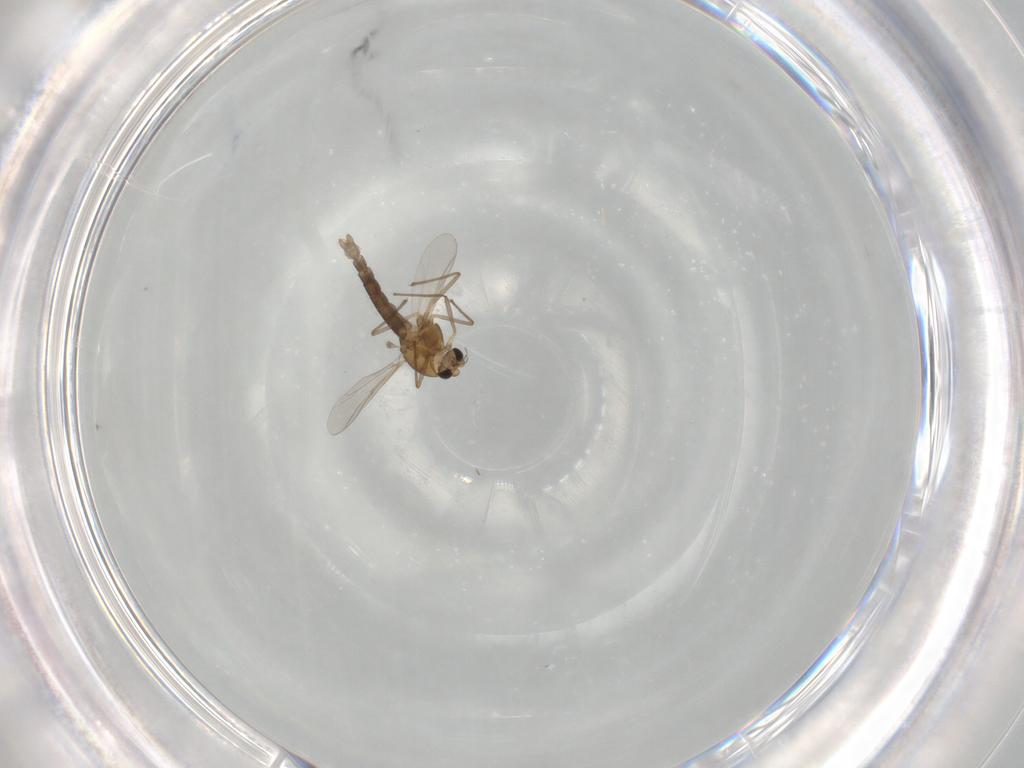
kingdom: Animalia
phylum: Arthropoda
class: Insecta
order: Diptera
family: Chironomidae
